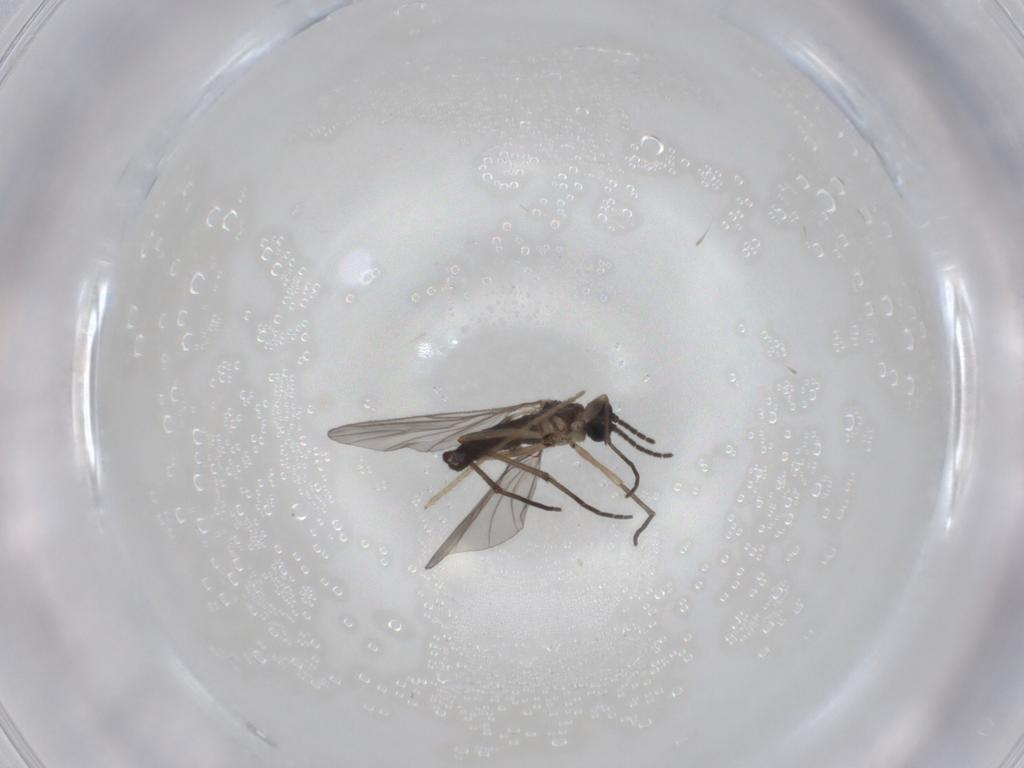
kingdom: Animalia
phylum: Arthropoda
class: Insecta
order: Diptera
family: Sciaridae
